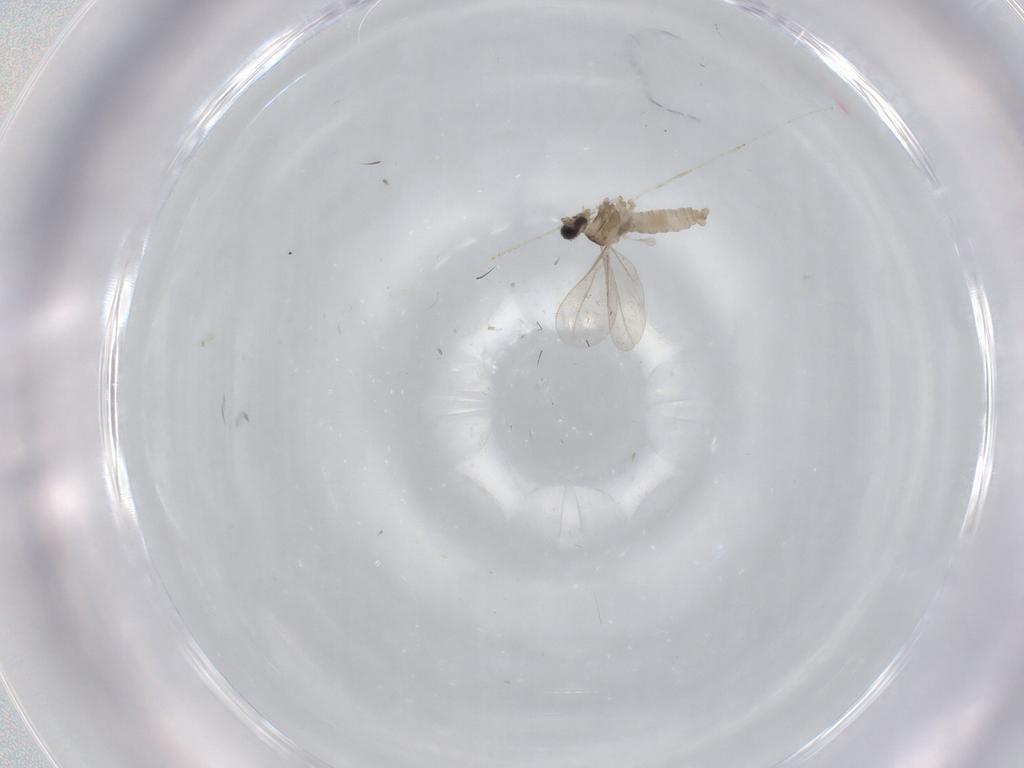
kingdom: Animalia
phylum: Arthropoda
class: Insecta
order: Diptera
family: Cecidomyiidae
